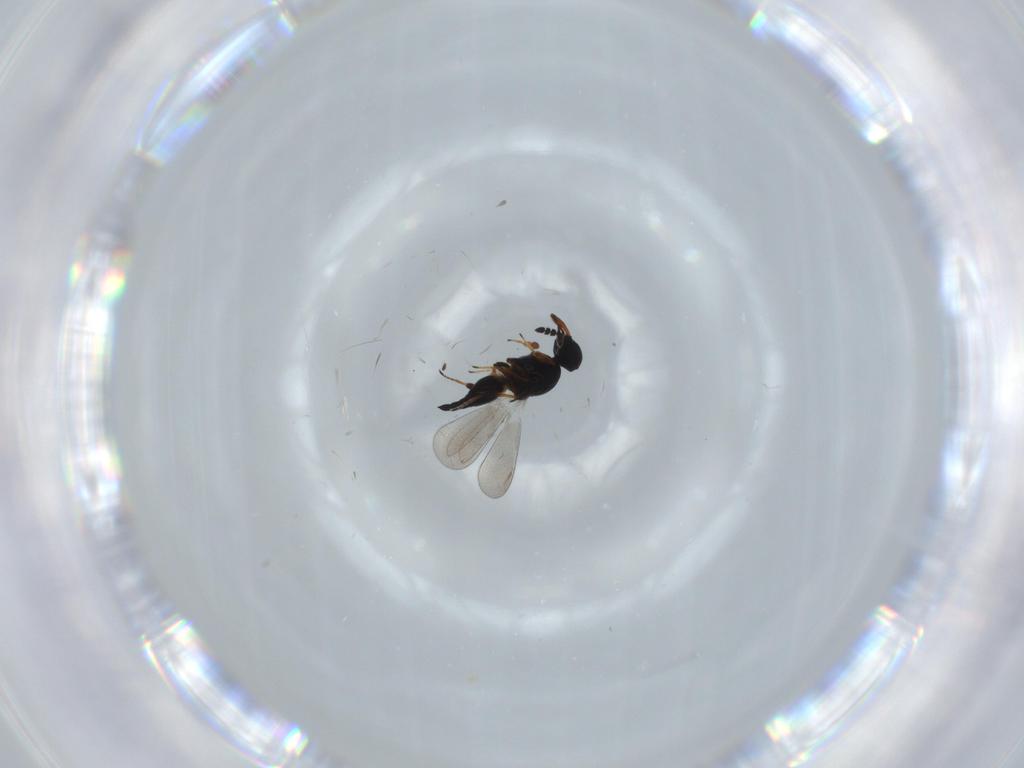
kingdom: Animalia
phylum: Arthropoda
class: Insecta
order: Hymenoptera
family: Platygastridae
